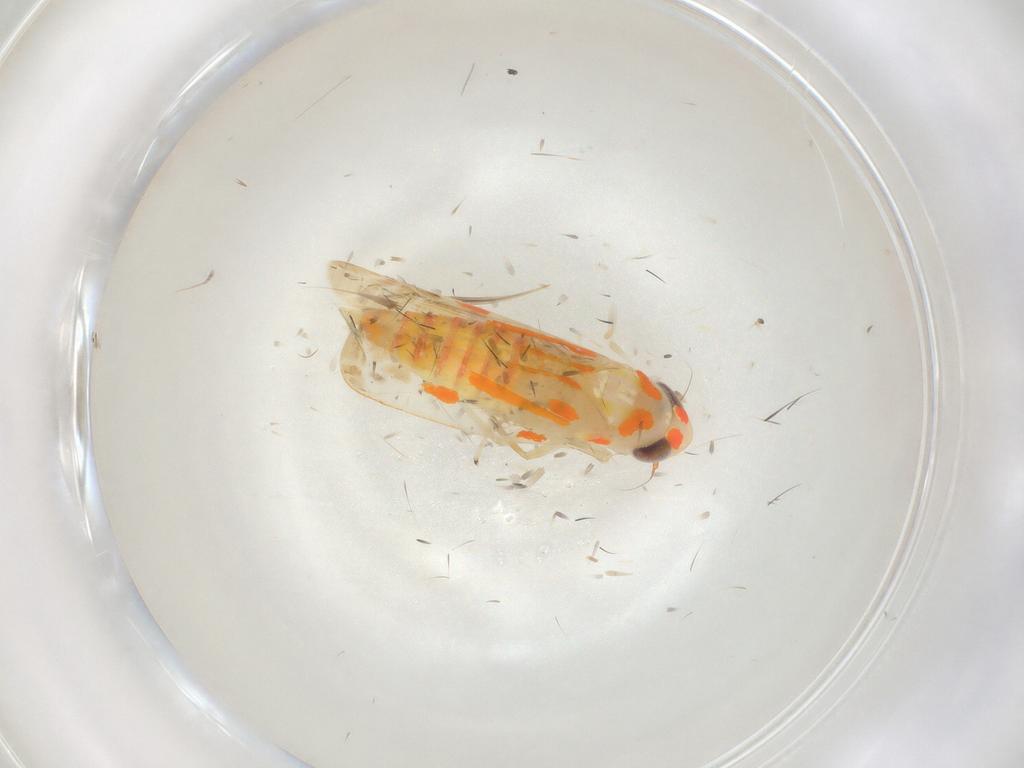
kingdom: Animalia
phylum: Arthropoda
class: Insecta
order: Hemiptera
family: Cicadellidae
